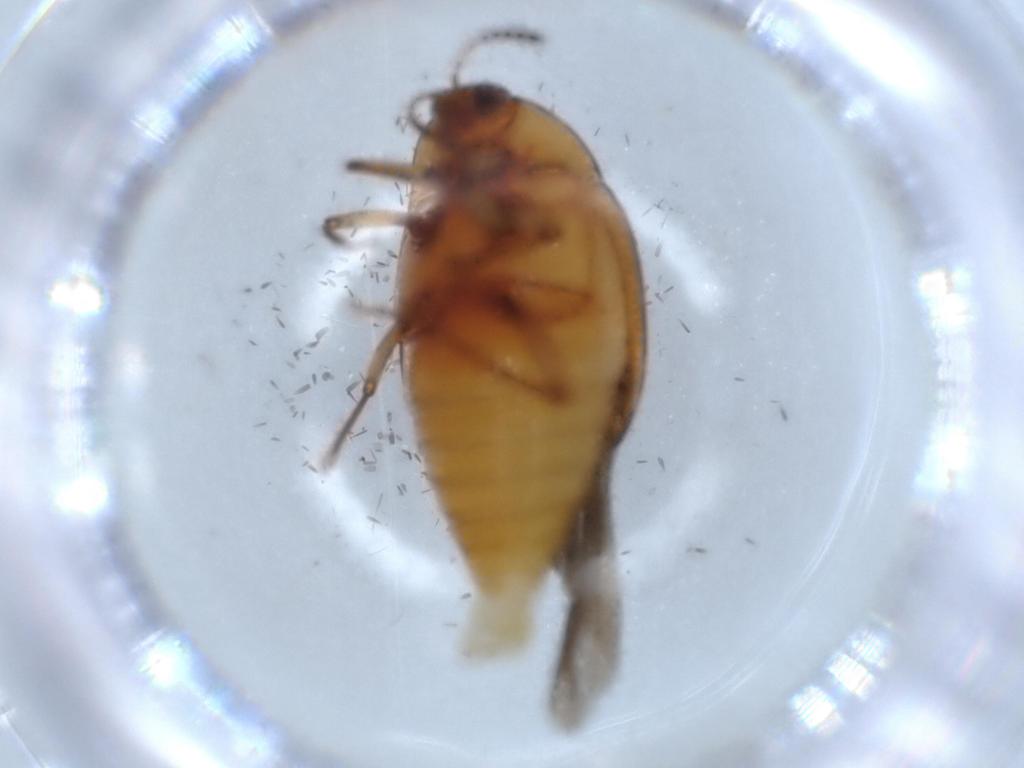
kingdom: Animalia
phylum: Arthropoda
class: Insecta
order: Coleoptera
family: Staphylinidae
